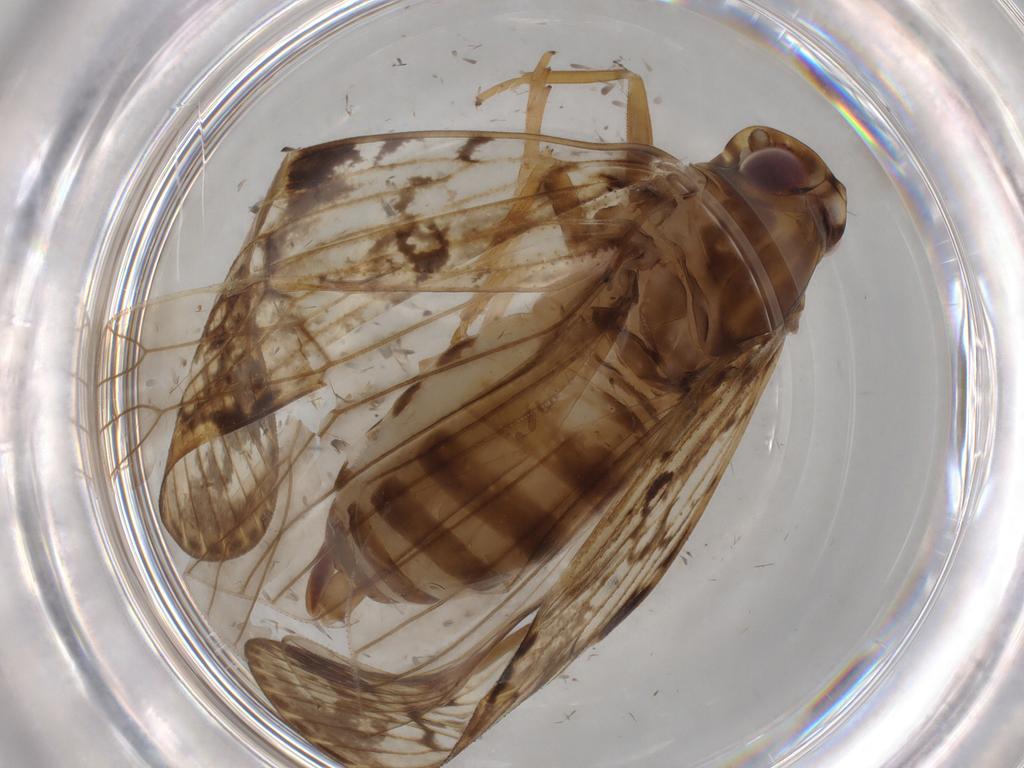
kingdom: Animalia
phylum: Arthropoda
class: Insecta
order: Hemiptera
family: Cixiidae
